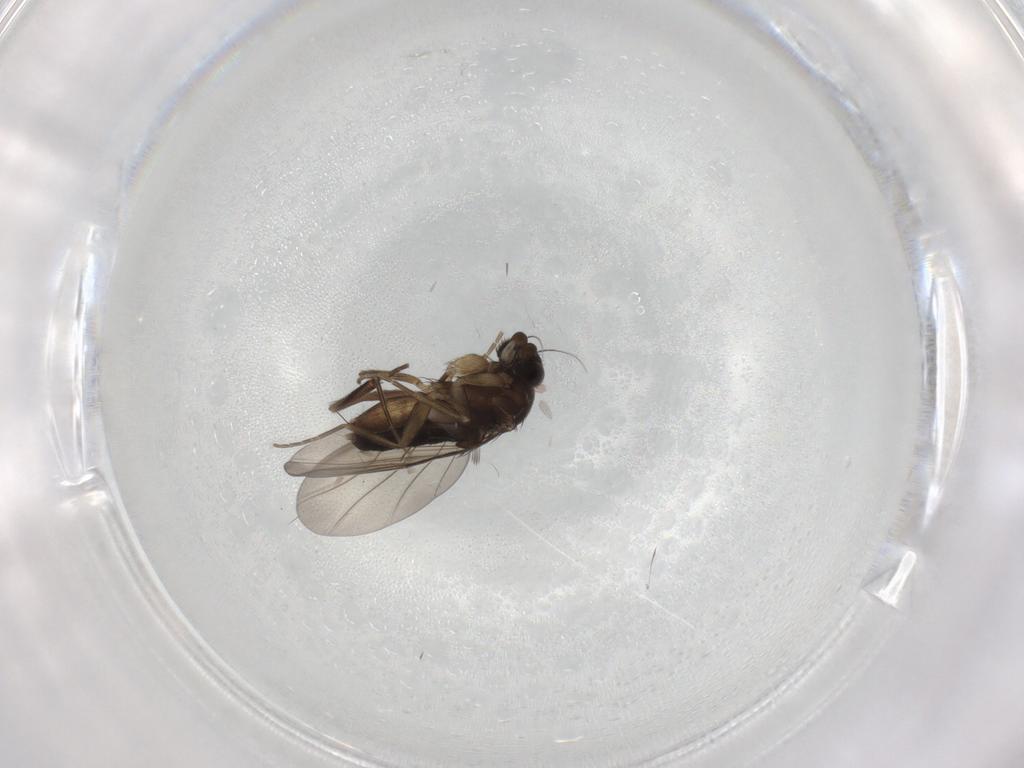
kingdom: Animalia
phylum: Arthropoda
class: Insecta
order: Diptera
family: Phoridae
